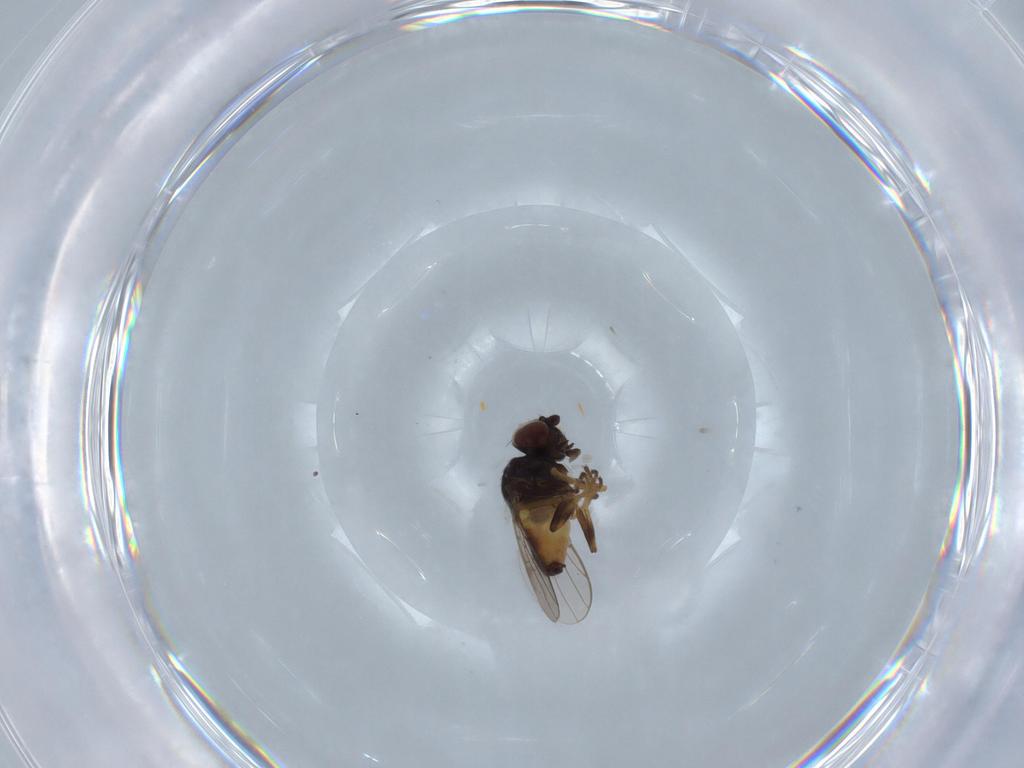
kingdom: Animalia
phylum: Arthropoda
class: Insecta
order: Diptera
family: Chloropidae
